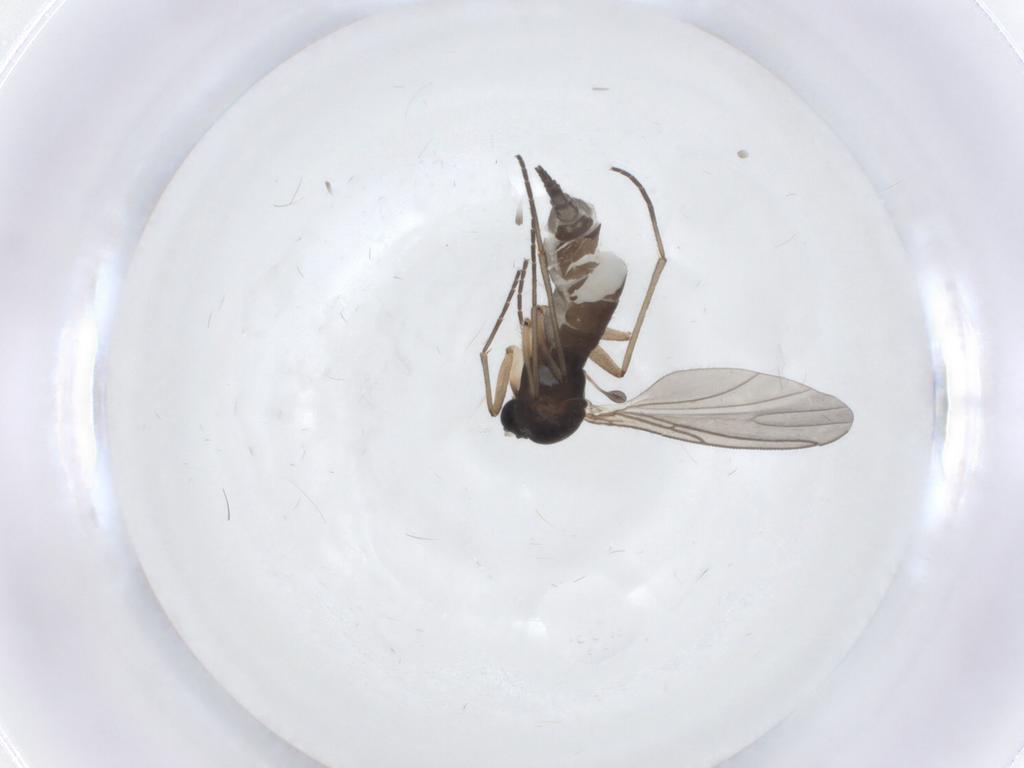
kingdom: Animalia
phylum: Arthropoda
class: Insecta
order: Diptera
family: Sciaridae
